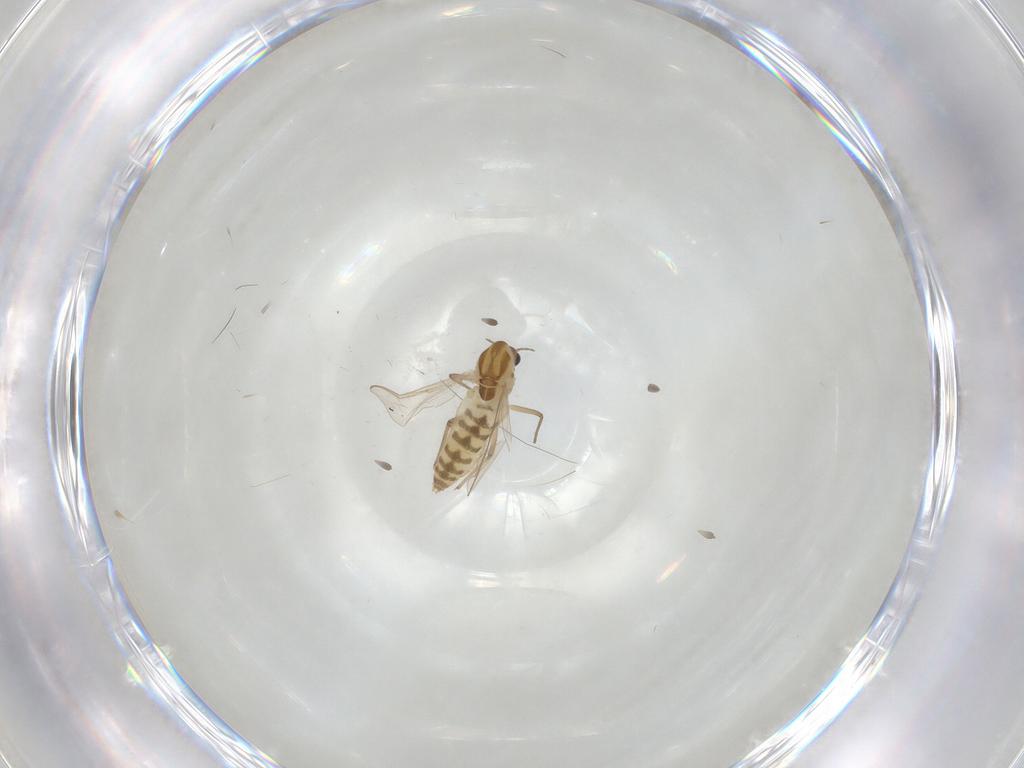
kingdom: Animalia
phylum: Arthropoda
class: Insecta
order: Diptera
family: Chironomidae
